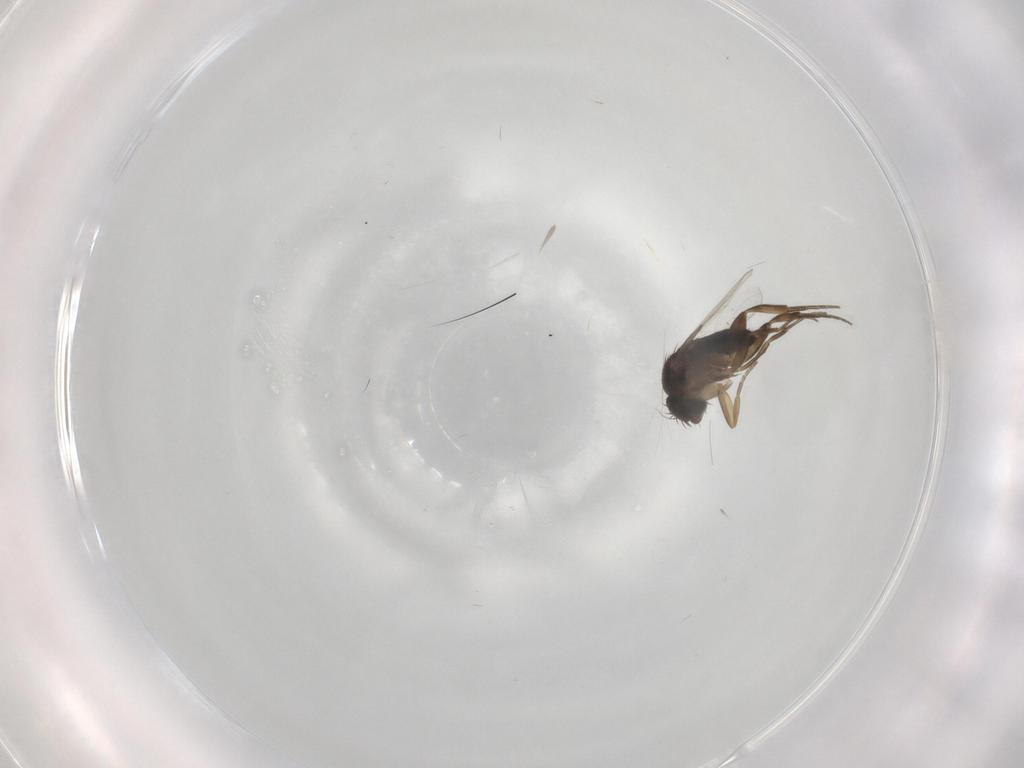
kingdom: Animalia
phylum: Arthropoda
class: Insecta
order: Diptera
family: Phoridae
